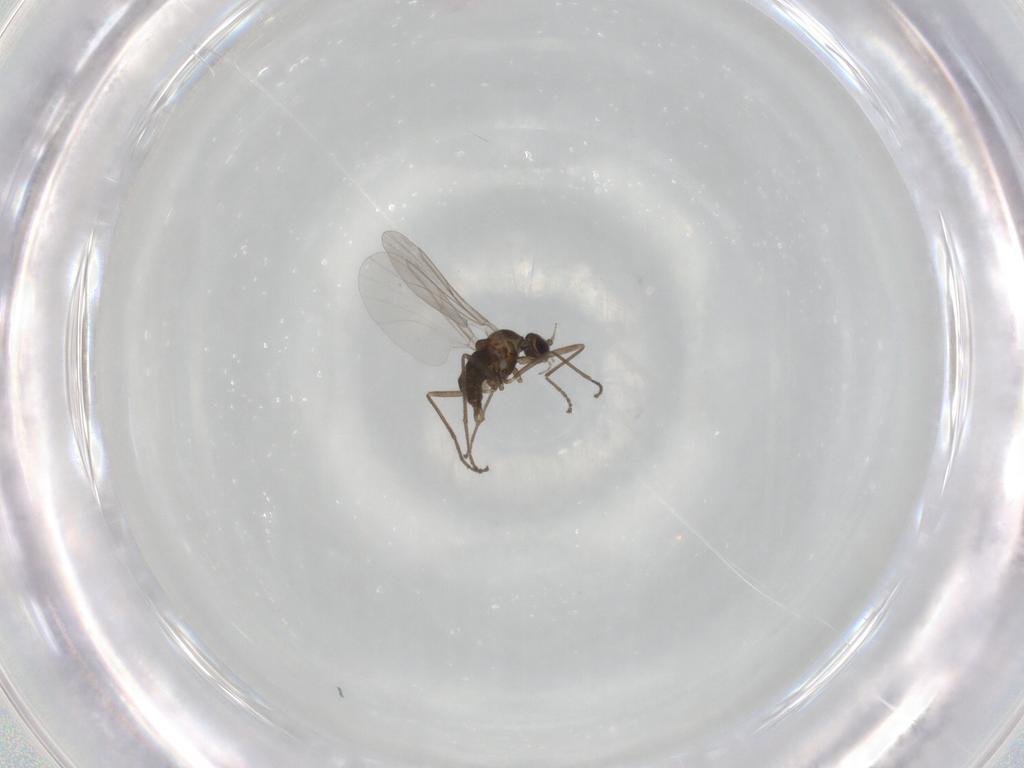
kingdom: Animalia
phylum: Arthropoda
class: Insecta
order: Diptera
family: Cecidomyiidae
